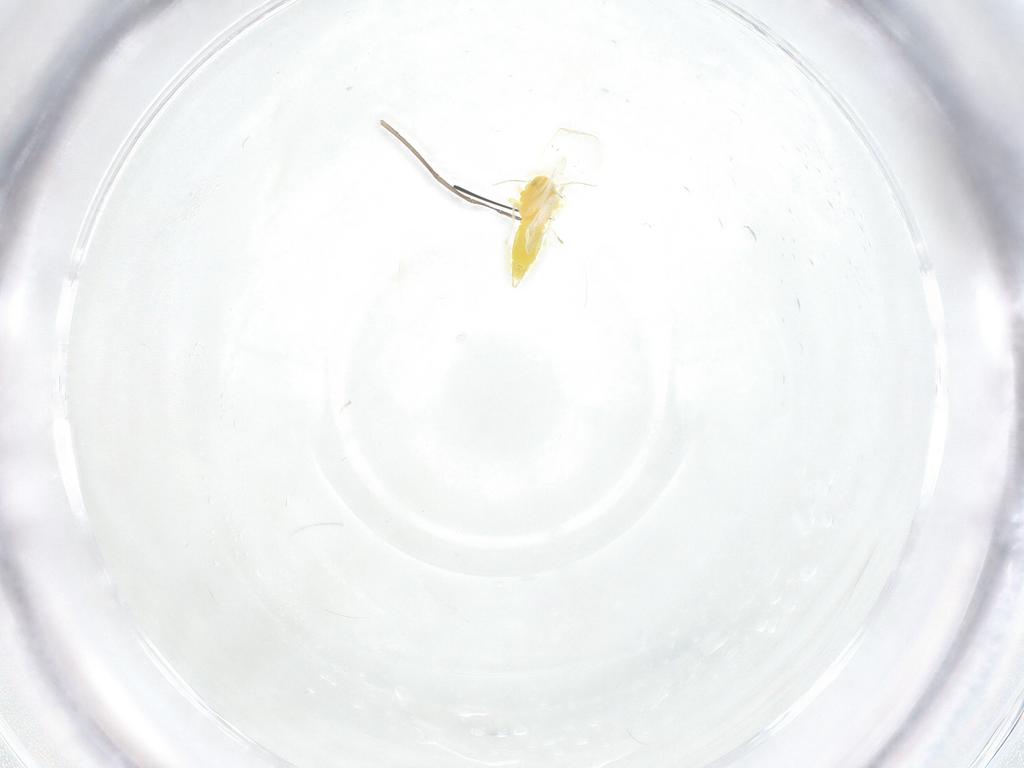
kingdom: Animalia
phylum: Arthropoda
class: Insecta
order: Hemiptera
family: Aleyrodidae
